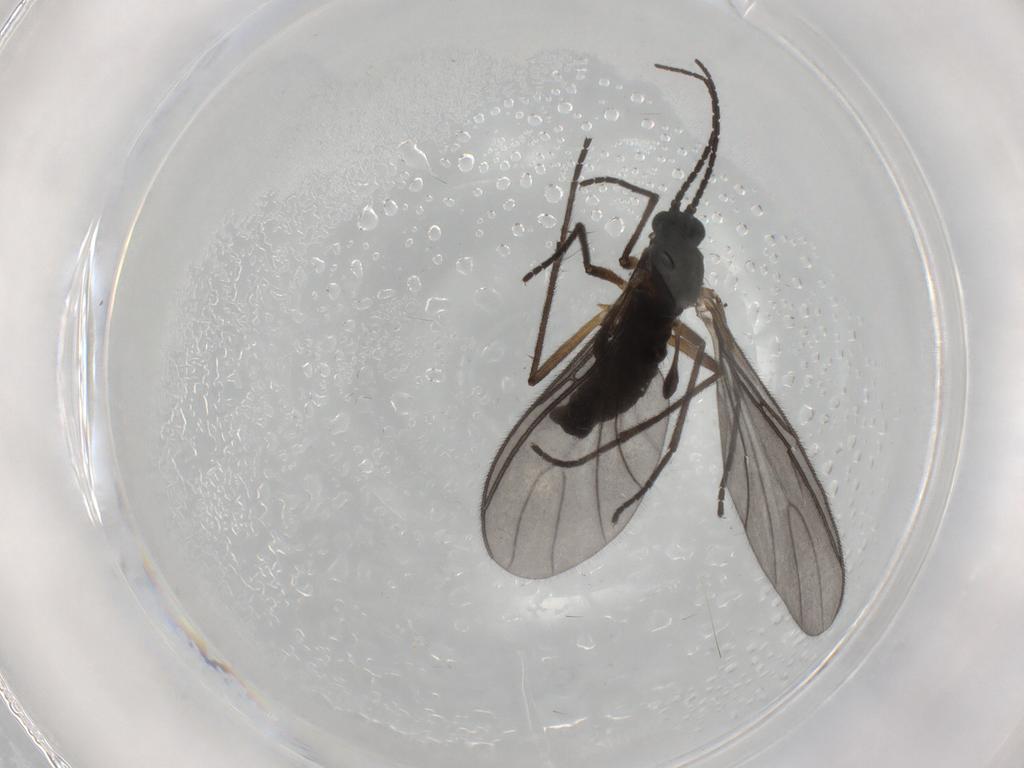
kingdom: Animalia
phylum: Arthropoda
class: Insecta
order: Diptera
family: Sciaridae
